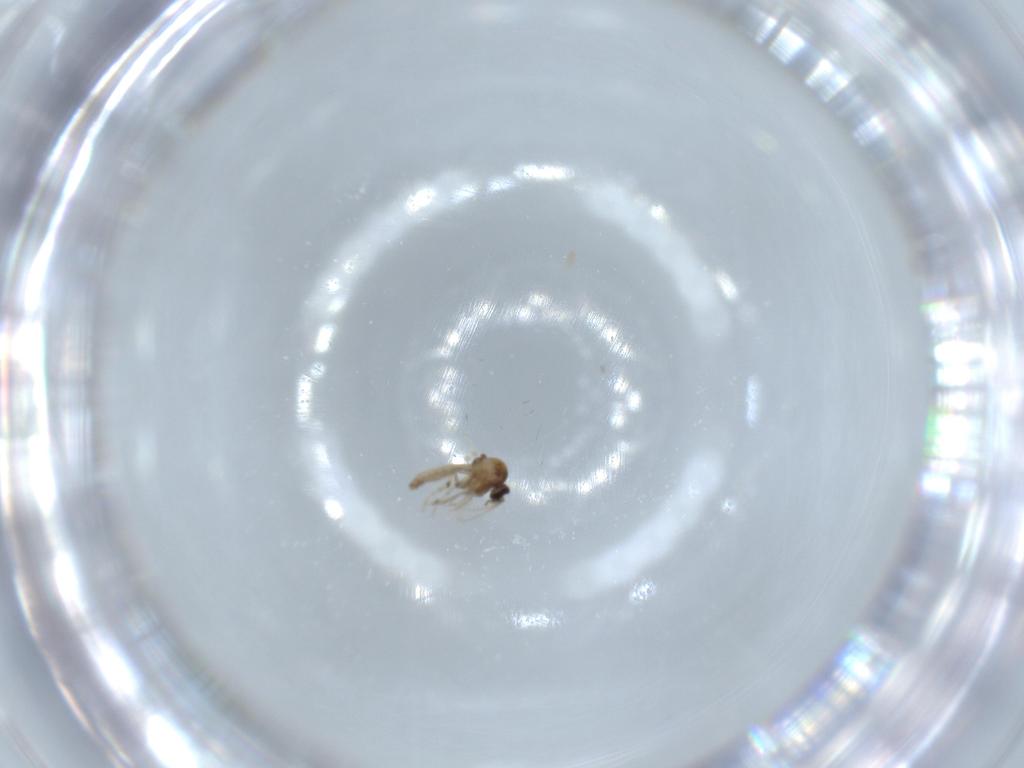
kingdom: Animalia
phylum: Arthropoda
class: Insecta
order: Diptera
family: Ceratopogonidae
